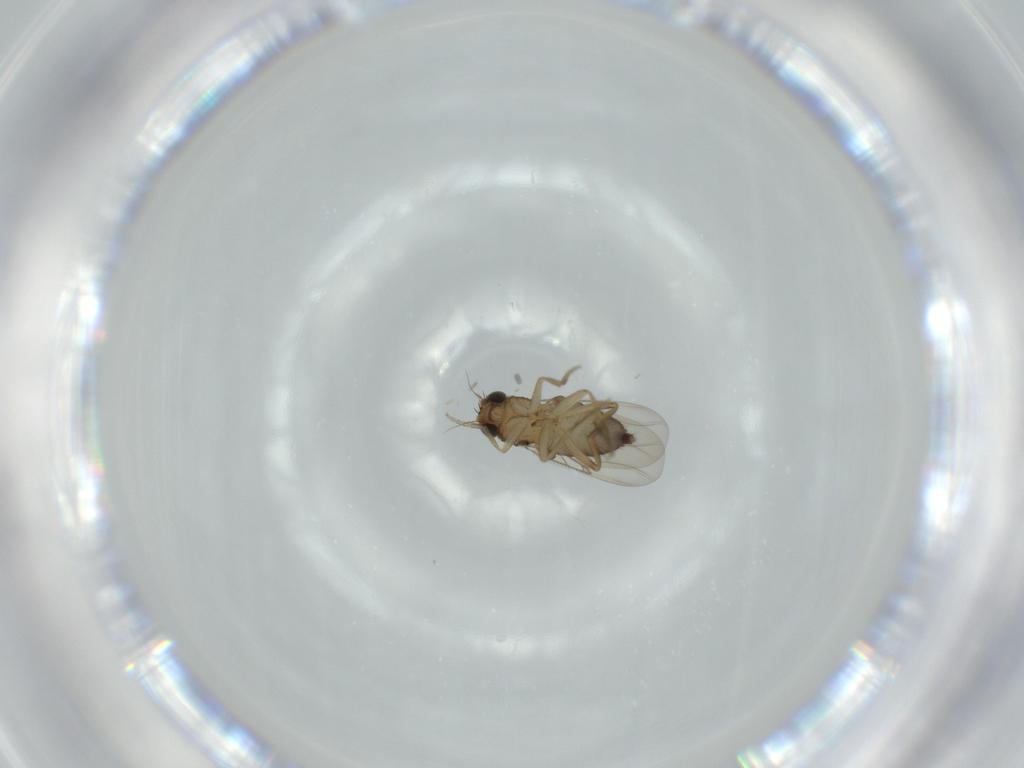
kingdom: Animalia
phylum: Arthropoda
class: Insecta
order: Diptera
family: Phoridae
